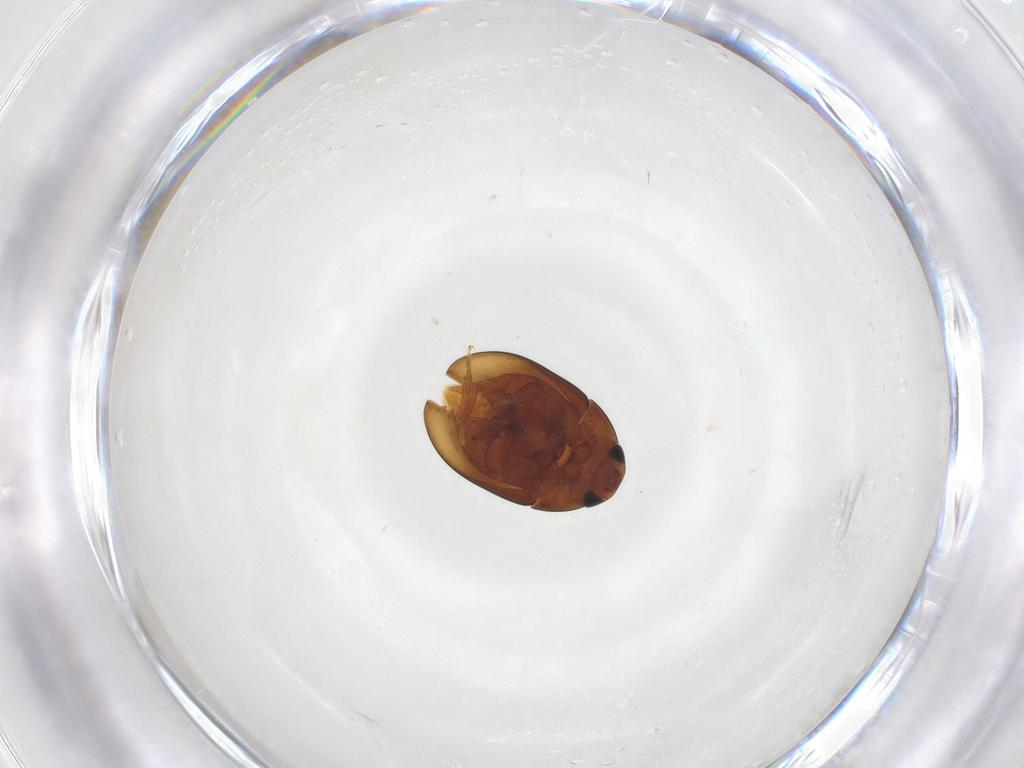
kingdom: Animalia
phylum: Arthropoda
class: Insecta
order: Coleoptera
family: Phalacridae
